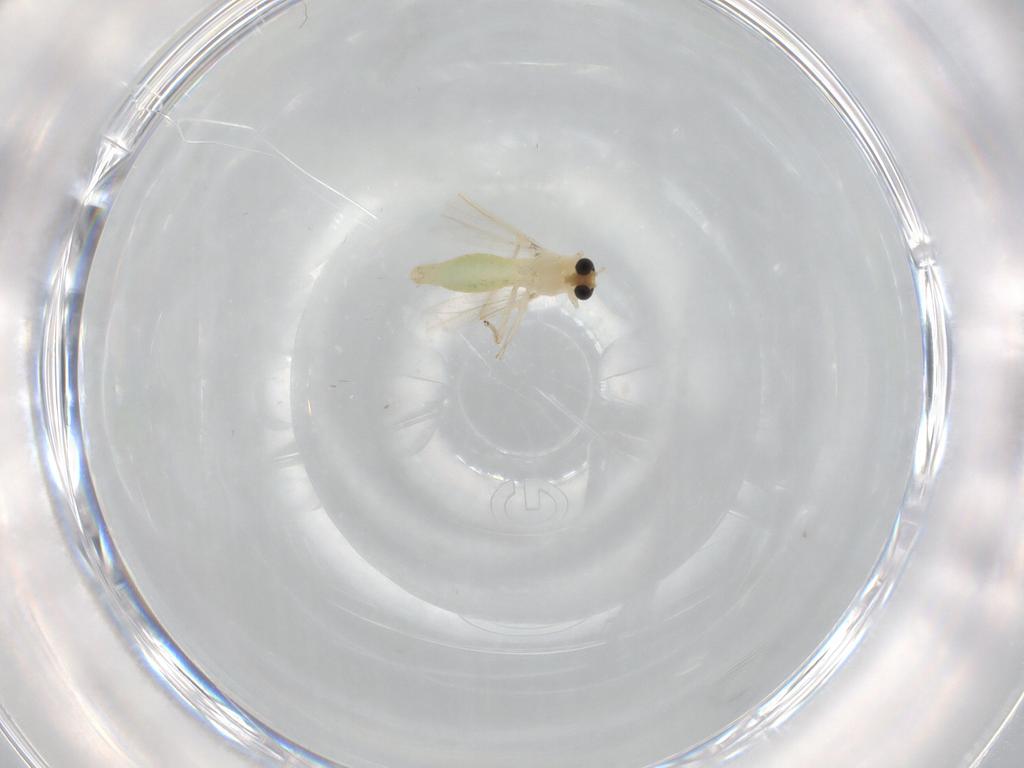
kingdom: Animalia
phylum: Arthropoda
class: Insecta
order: Diptera
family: Chironomidae
